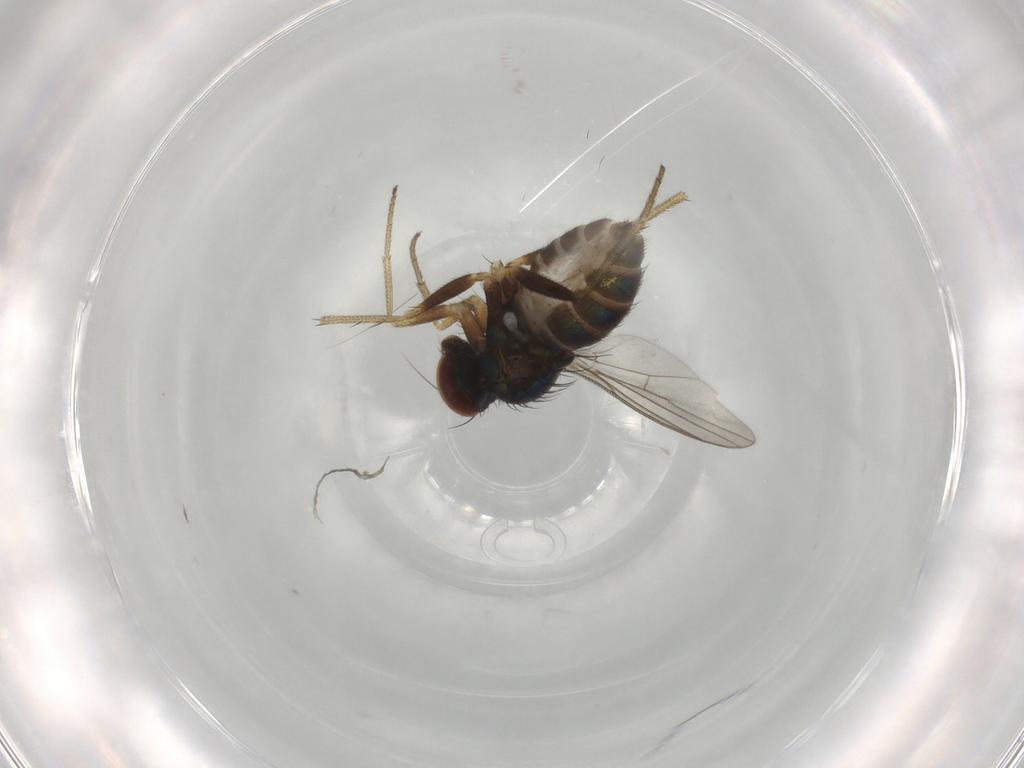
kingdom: Animalia
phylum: Arthropoda
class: Insecta
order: Diptera
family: Dolichopodidae
